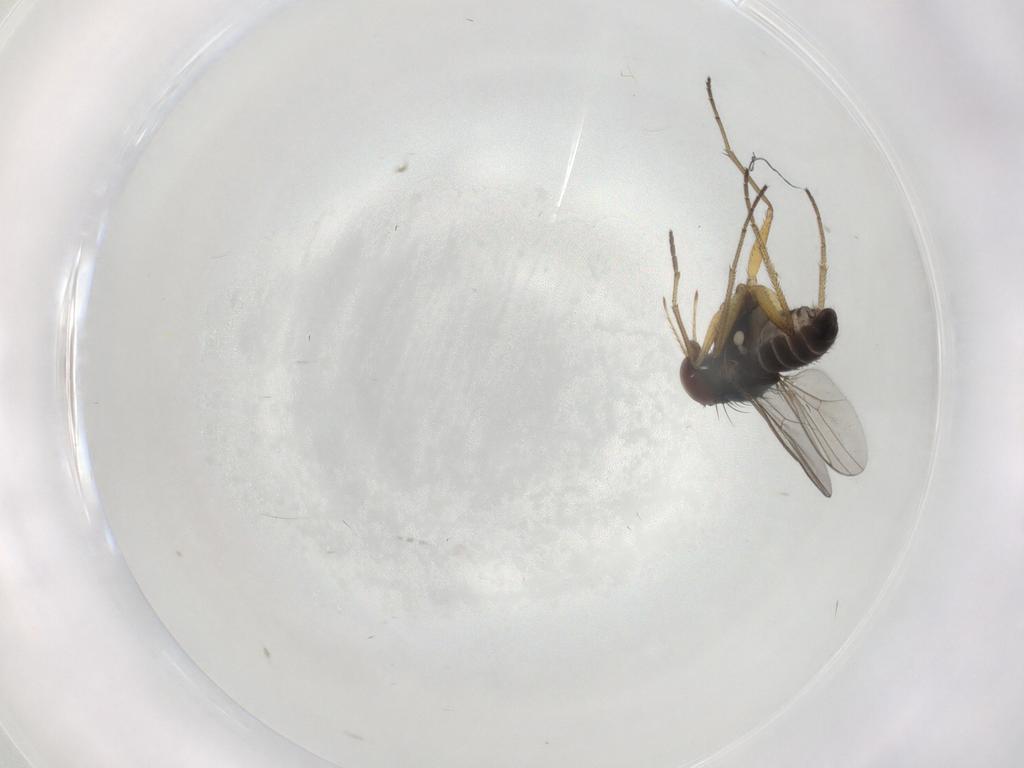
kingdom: Animalia
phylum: Arthropoda
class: Insecta
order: Diptera
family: Dolichopodidae
